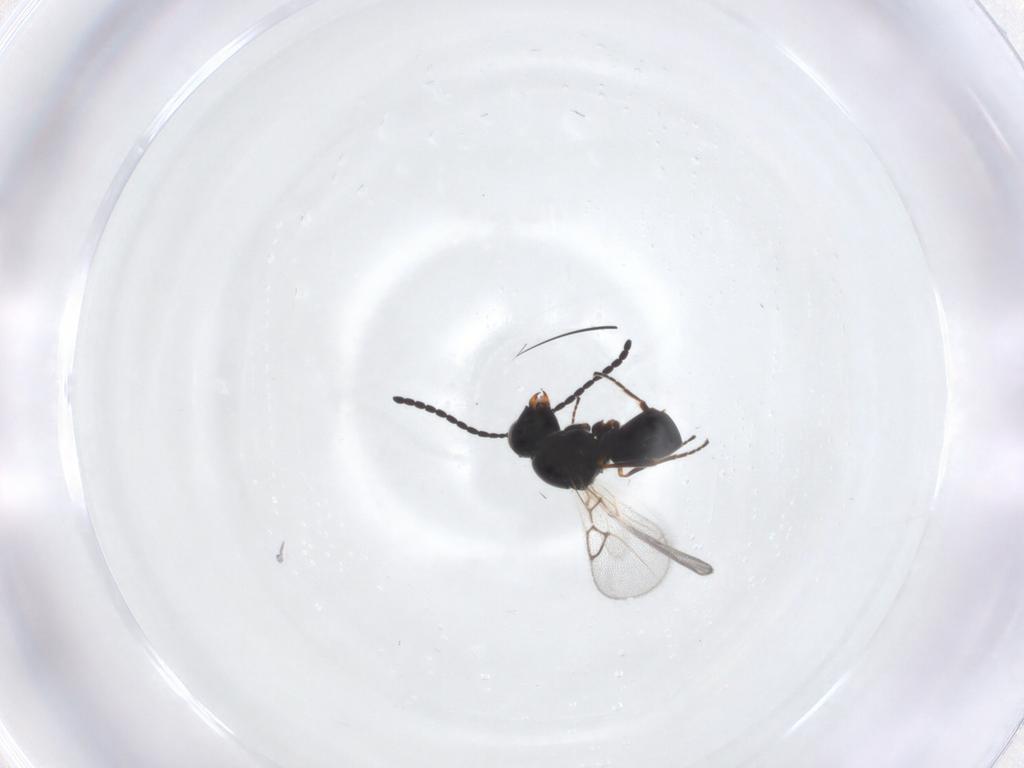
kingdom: Animalia
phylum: Arthropoda
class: Insecta
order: Hymenoptera
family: Figitidae
